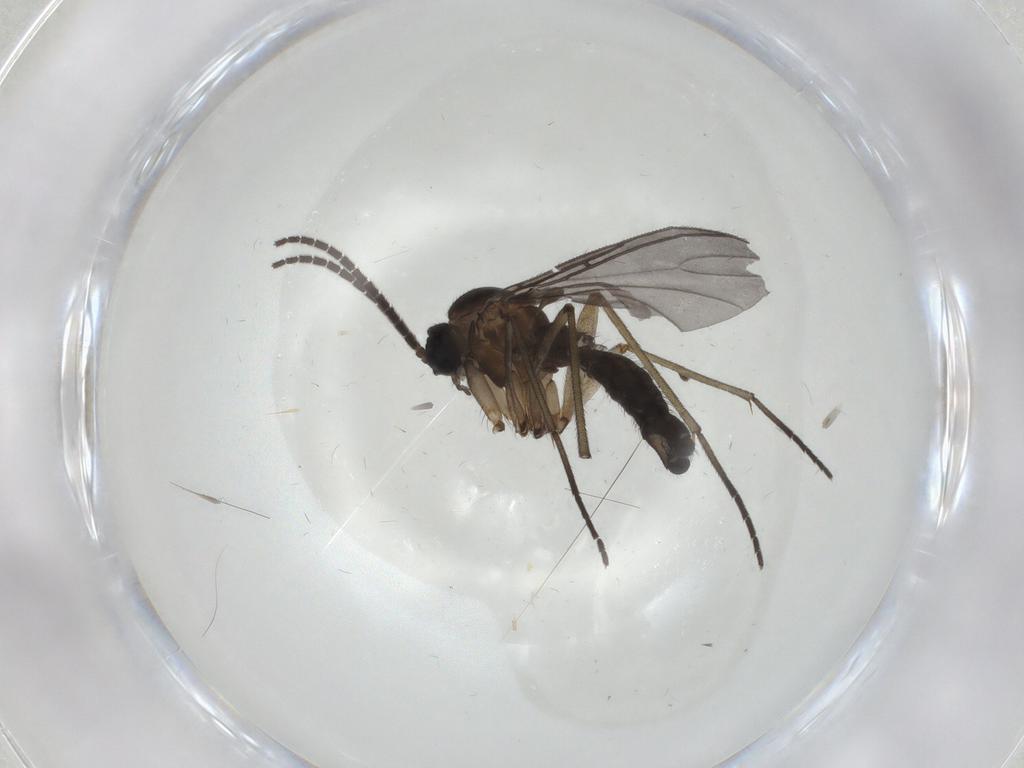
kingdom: Animalia
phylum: Arthropoda
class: Insecta
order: Diptera
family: Sciaridae
